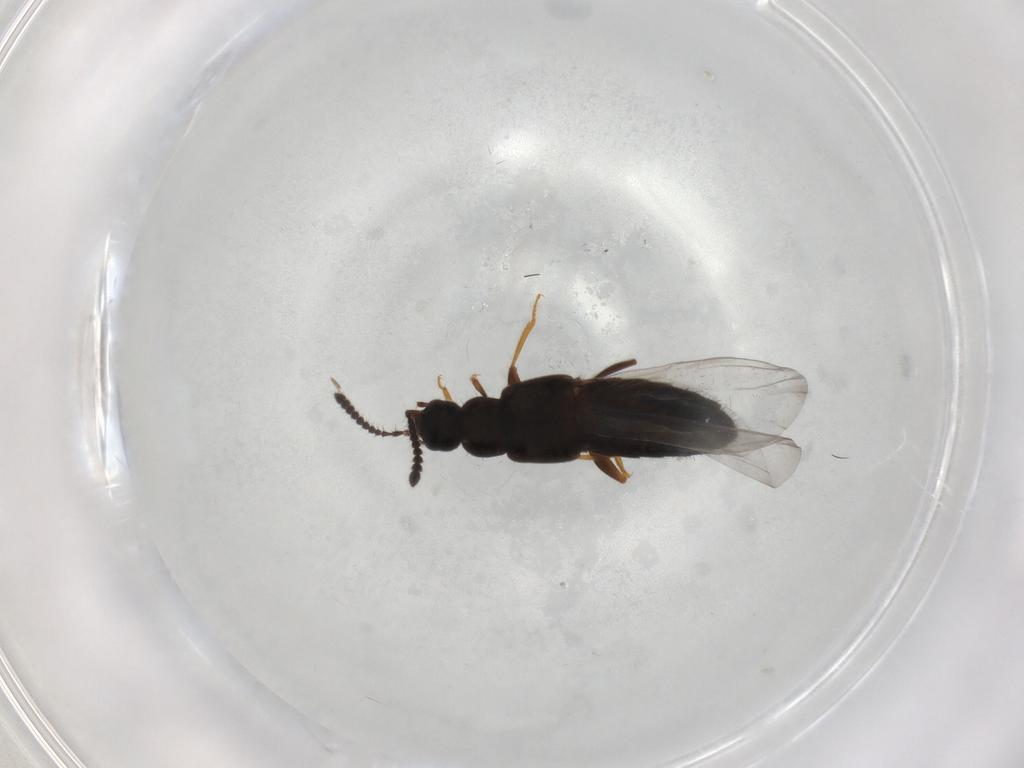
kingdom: Animalia
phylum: Arthropoda
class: Insecta
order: Coleoptera
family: Staphylinidae
